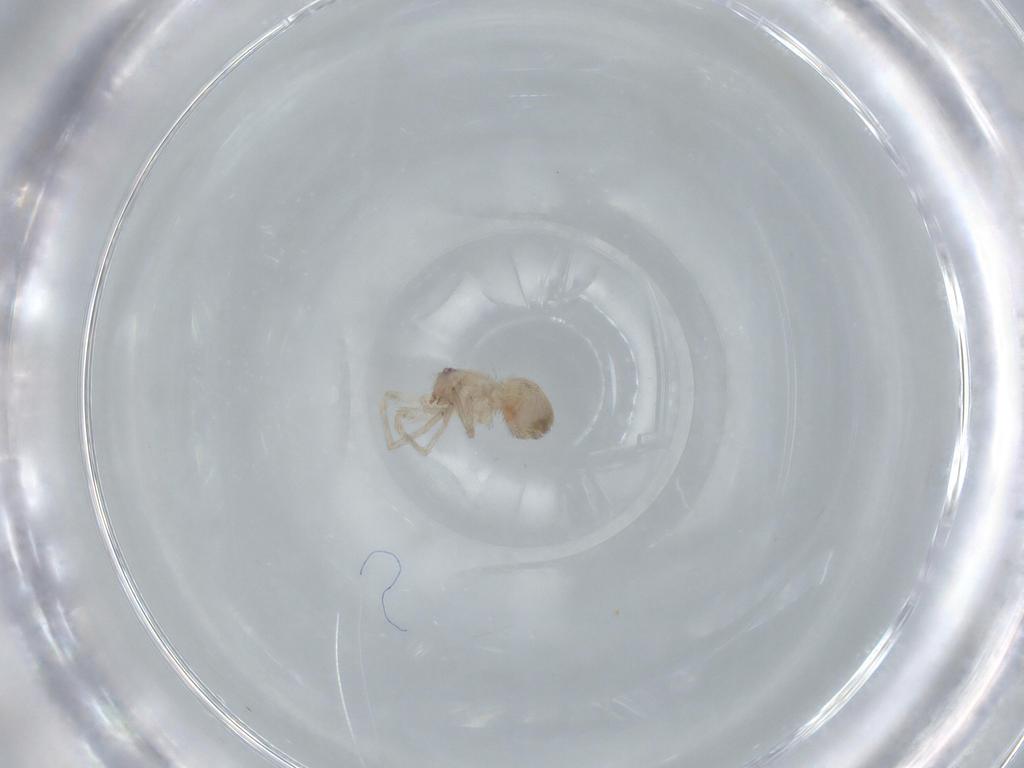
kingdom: Animalia
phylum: Arthropoda
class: Arachnida
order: Araneae
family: Oonopidae
